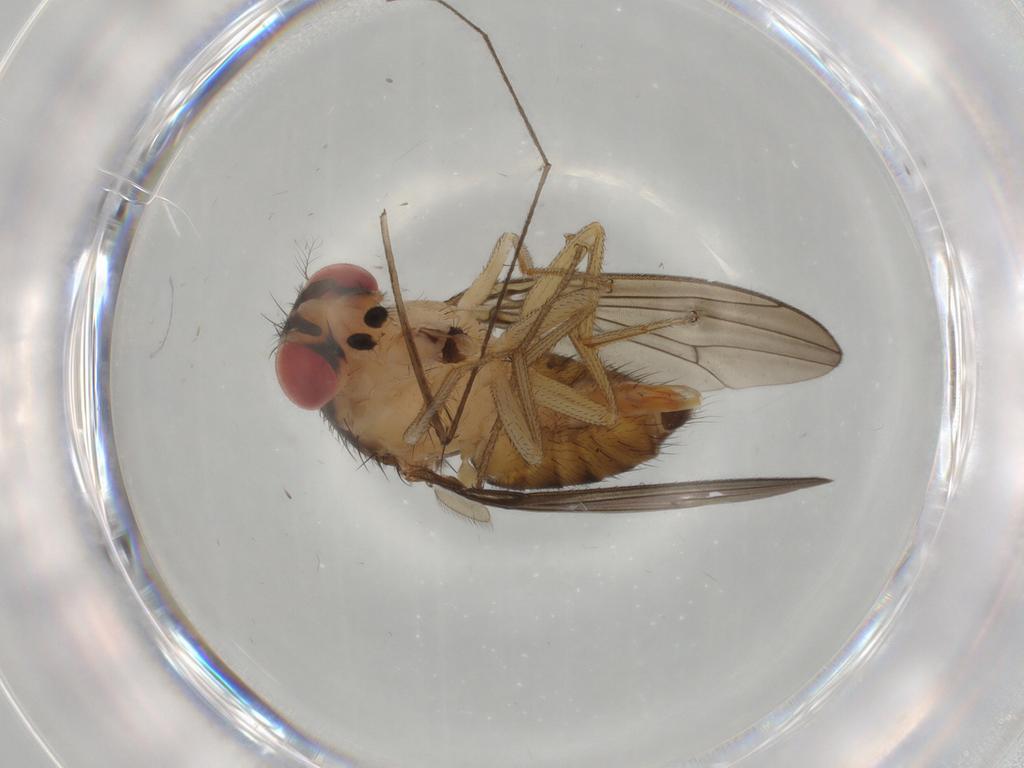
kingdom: Animalia
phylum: Arthropoda
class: Insecta
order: Diptera
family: Drosophilidae
